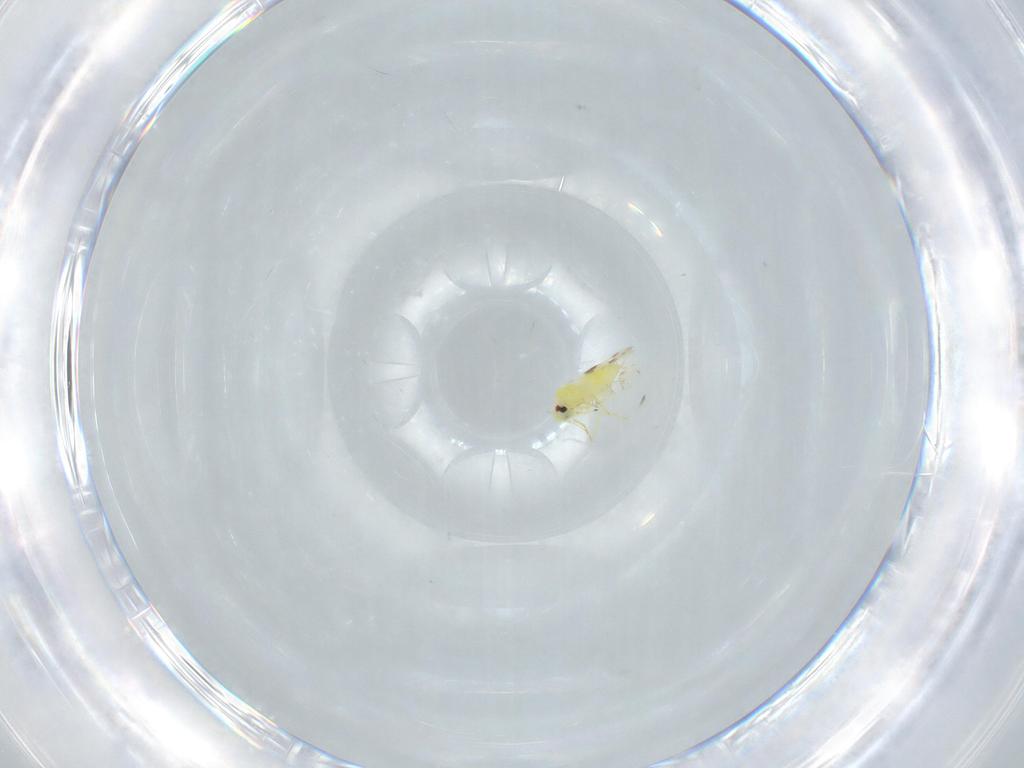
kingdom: Animalia
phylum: Arthropoda
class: Insecta
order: Hemiptera
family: Aleyrodidae
